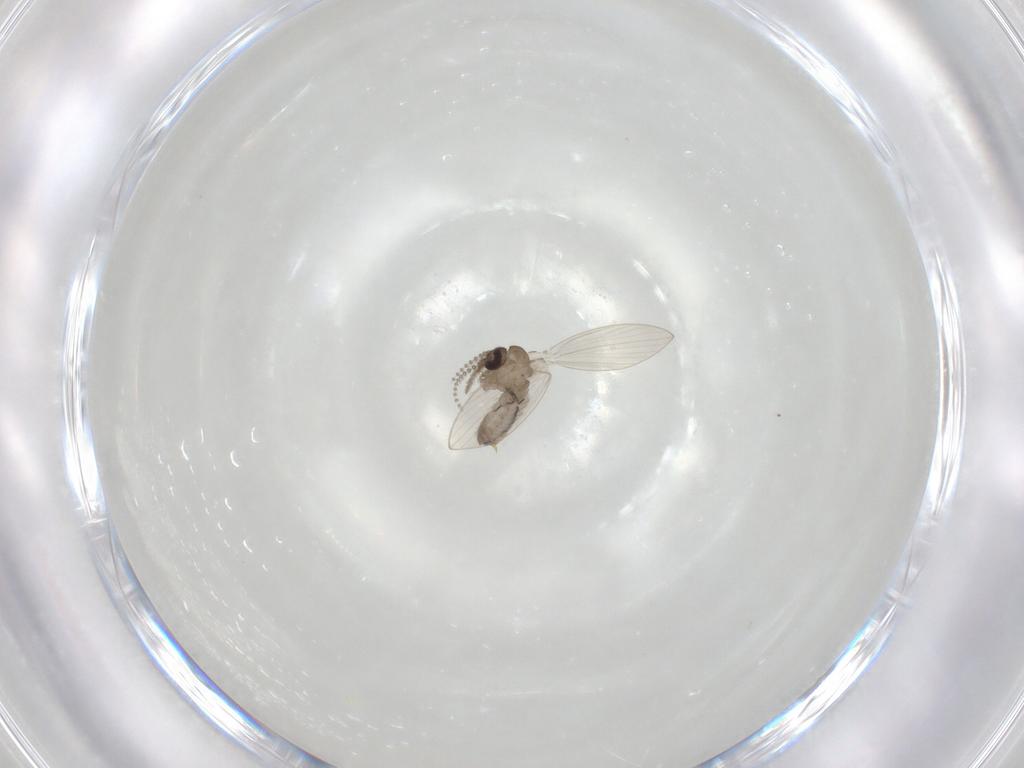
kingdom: Animalia
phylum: Arthropoda
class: Insecta
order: Diptera
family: Psychodidae
